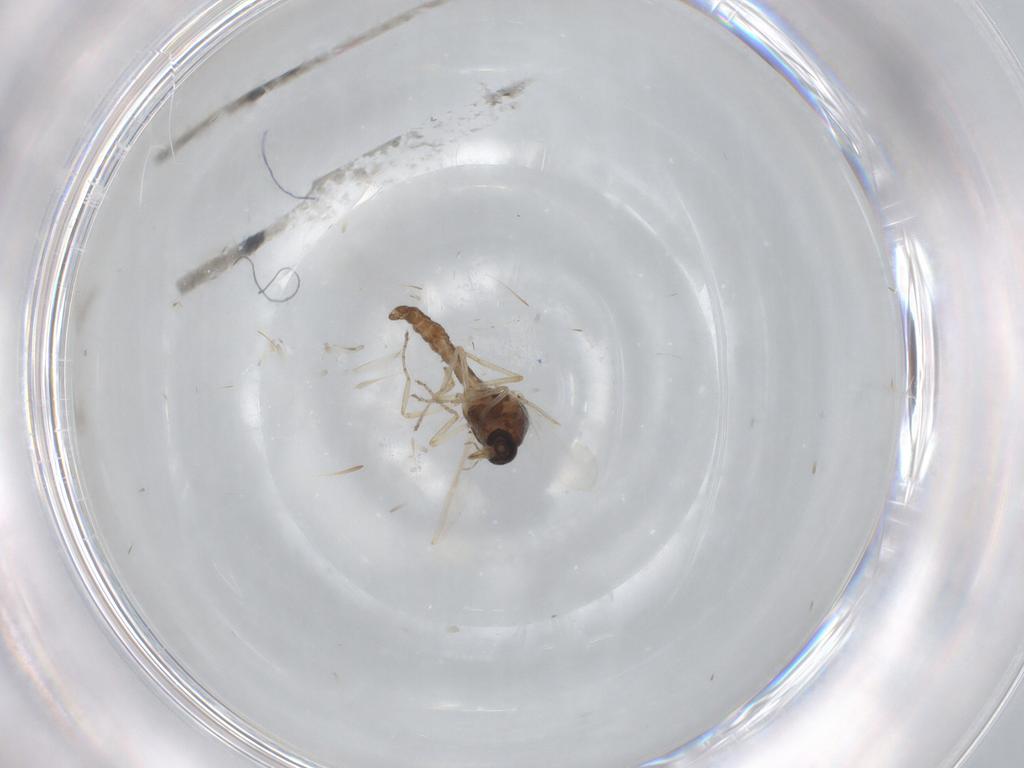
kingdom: Animalia
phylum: Arthropoda
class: Insecta
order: Diptera
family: Ceratopogonidae
